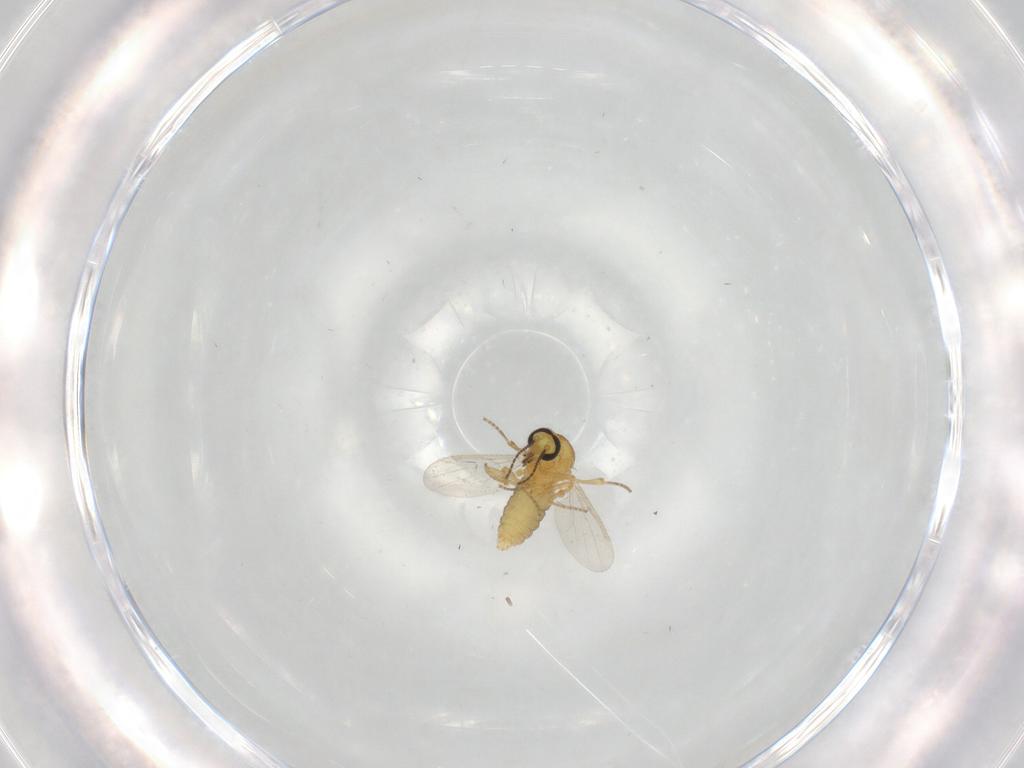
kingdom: Animalia
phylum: Arthropoda
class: Insecta
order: Diptera
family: Ceratopogonidae
